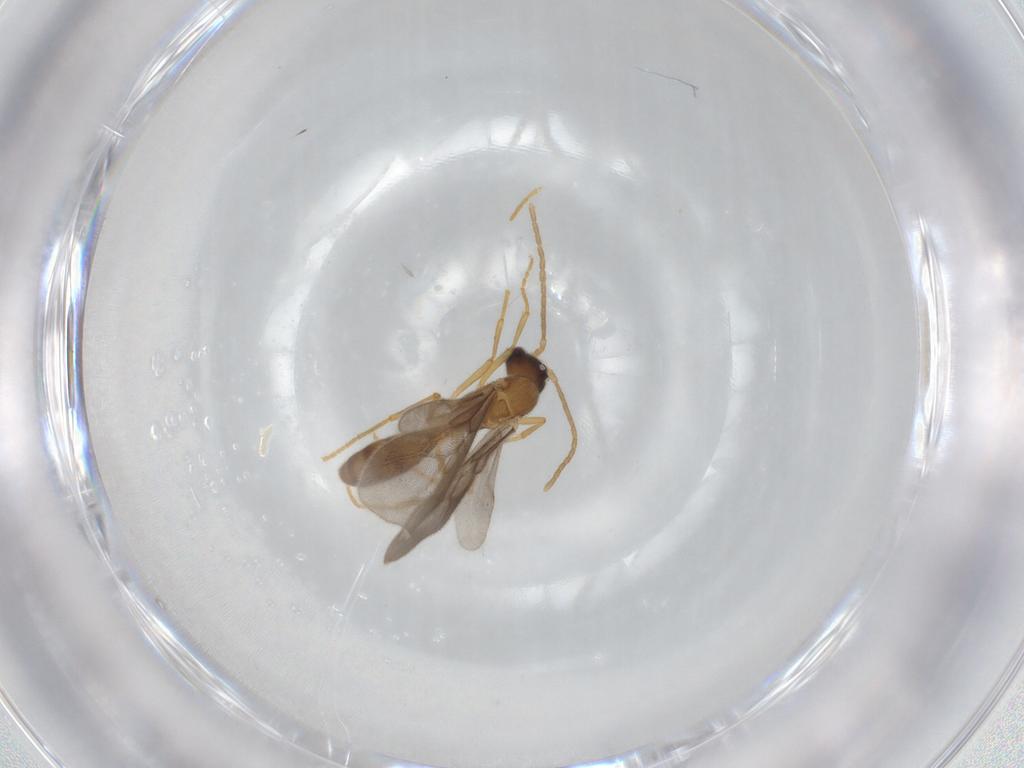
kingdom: Animalia
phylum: Arthropoda
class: Insecta
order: Hymenoptera
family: Formicidae
